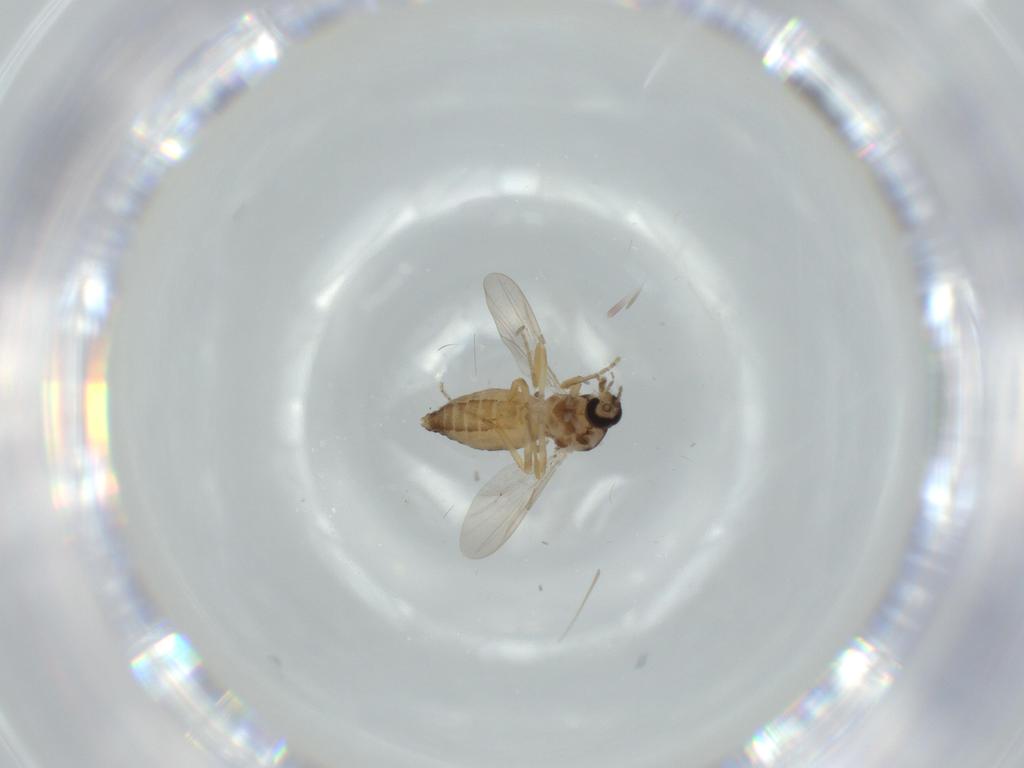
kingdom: Animalia
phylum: Arthropoda
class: Insecta
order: Diptera
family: Ceratopogonidae
